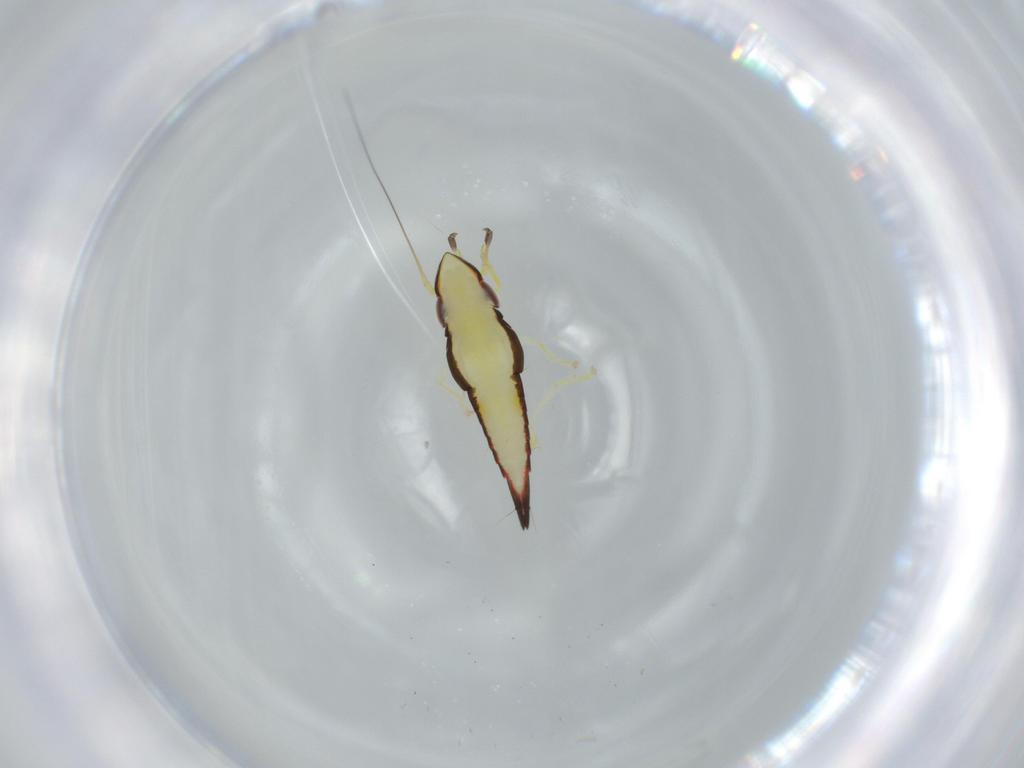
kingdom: Animalia
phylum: Arthropoda
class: Insecta
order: Hemiptera
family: Cicadellidae
